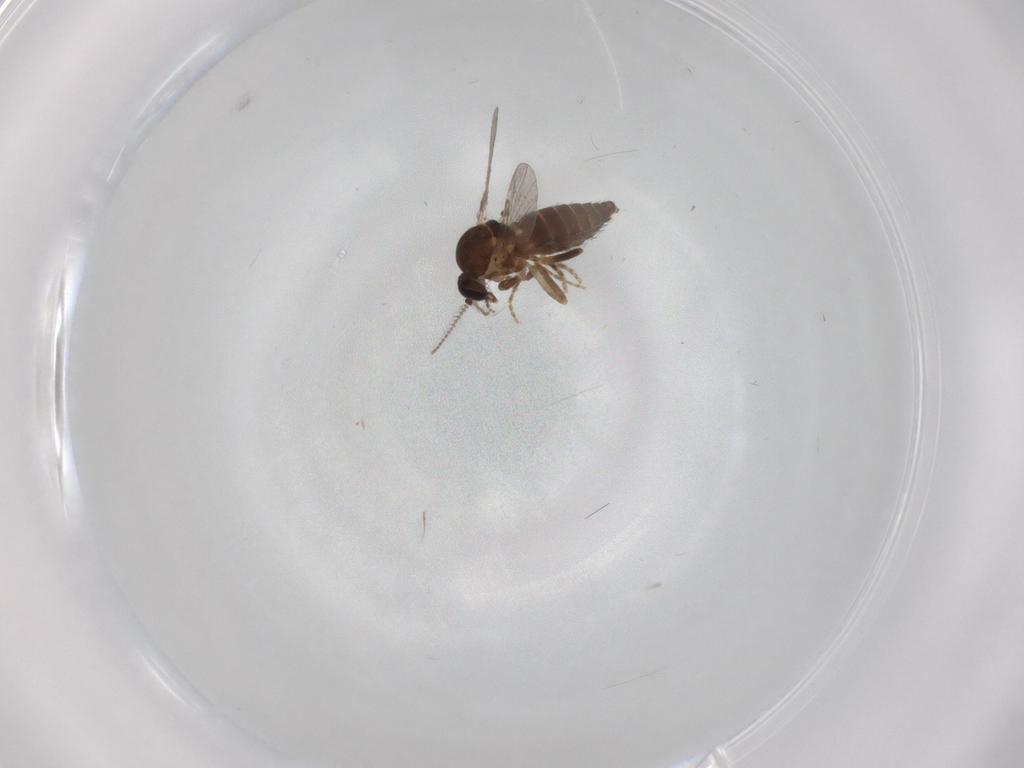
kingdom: Animalia
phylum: Arthropoda
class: Insecta
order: Diptera
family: Ceratopogonidae
